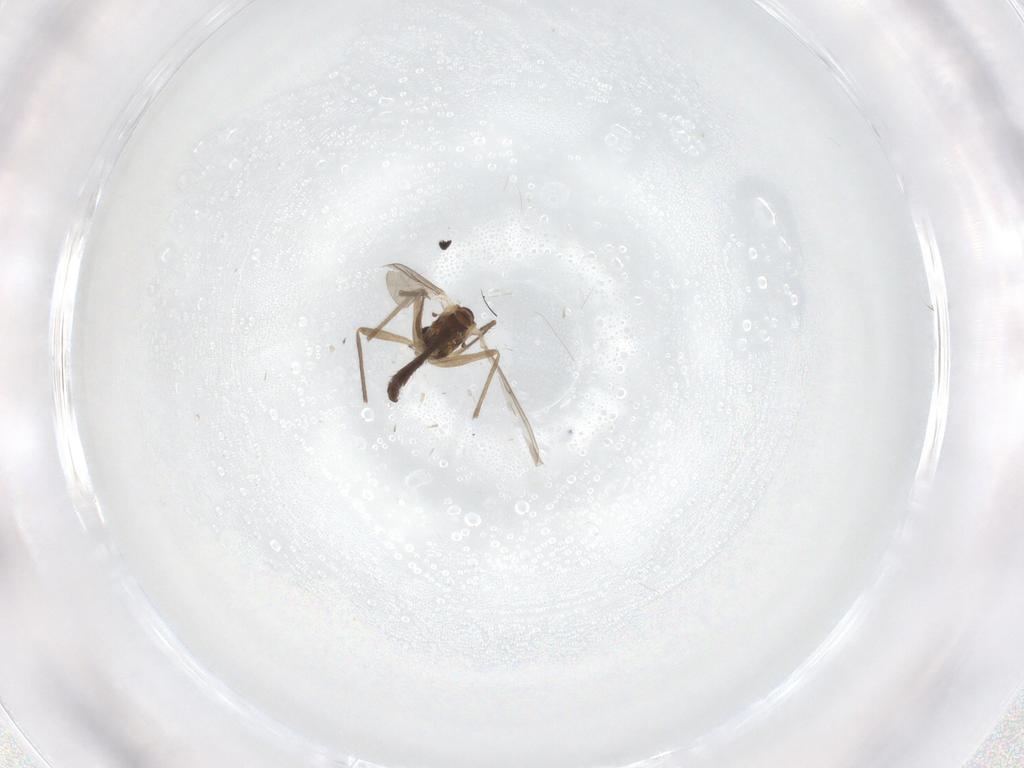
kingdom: Animalia
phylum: Arthropoda
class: Insecta
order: Diptera
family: Chironomidae
